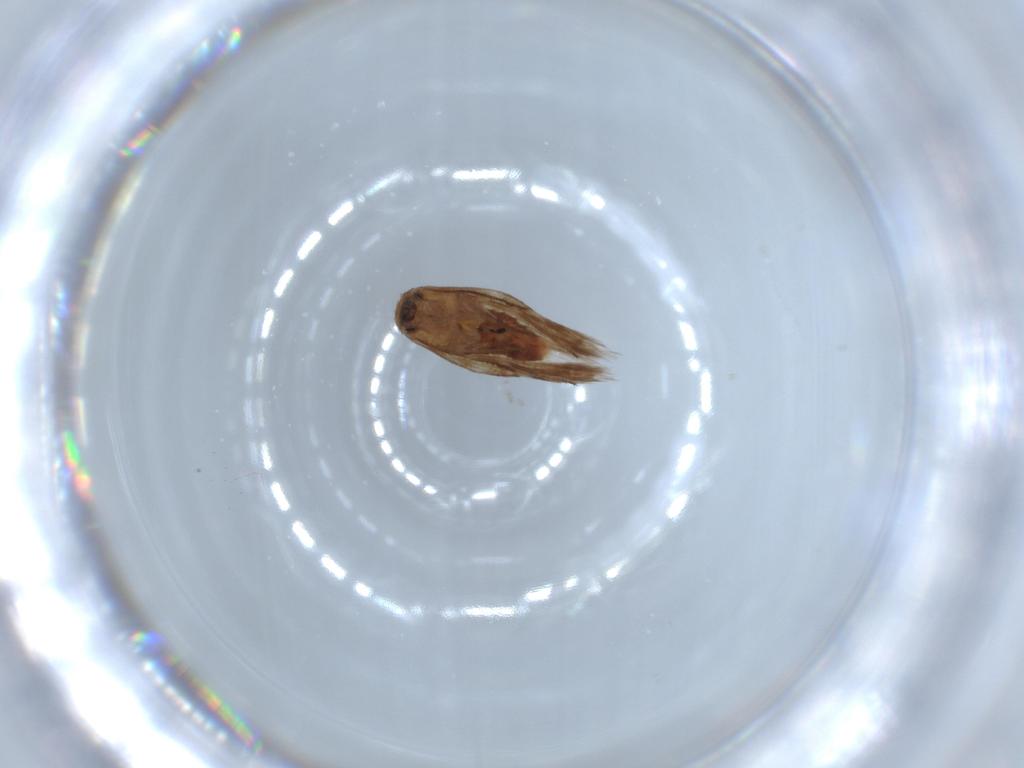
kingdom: Animalia
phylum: Arthropoda
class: Insecta
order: Lepidoptera
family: Lyonetiidae
